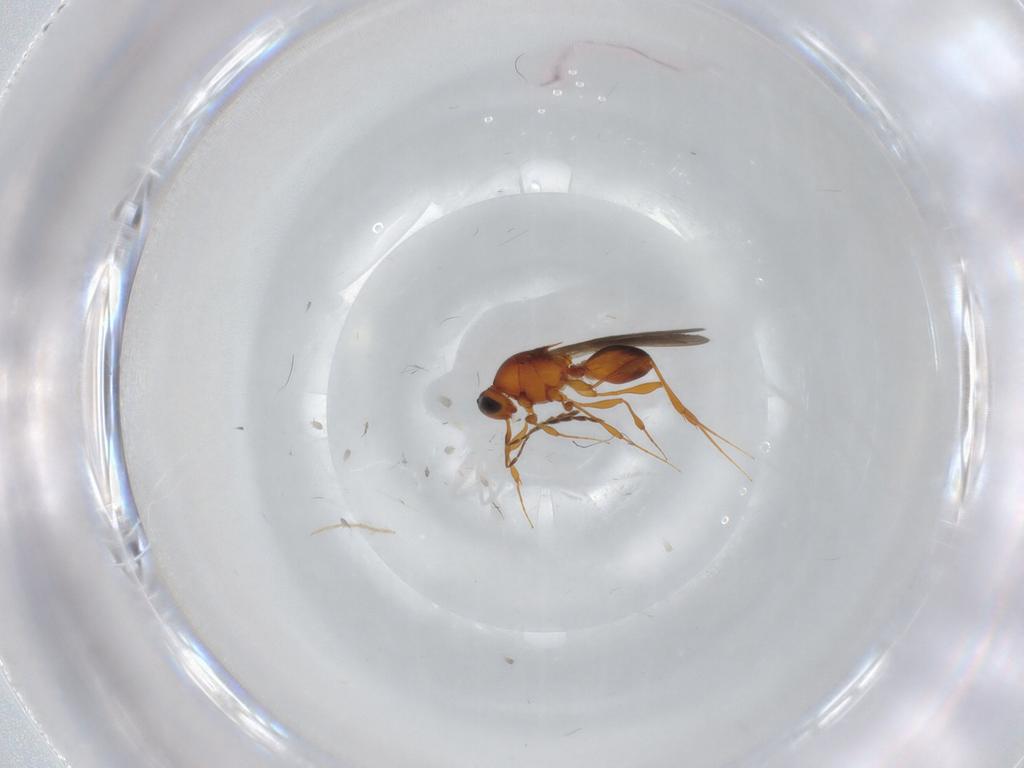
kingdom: Animalia
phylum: Arthropoda
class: Insecta
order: Hymenoptera
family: Platygastridae
